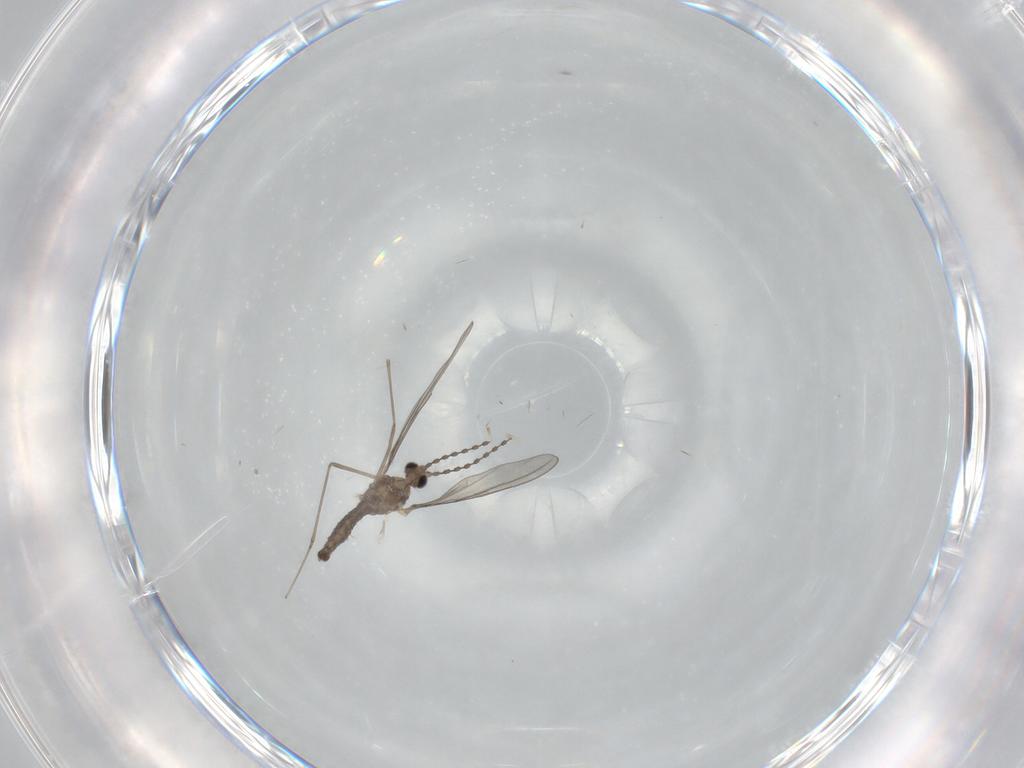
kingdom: Animalia
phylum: Arthropoda
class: Insecta
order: Diptera
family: Cecidomyiidae
